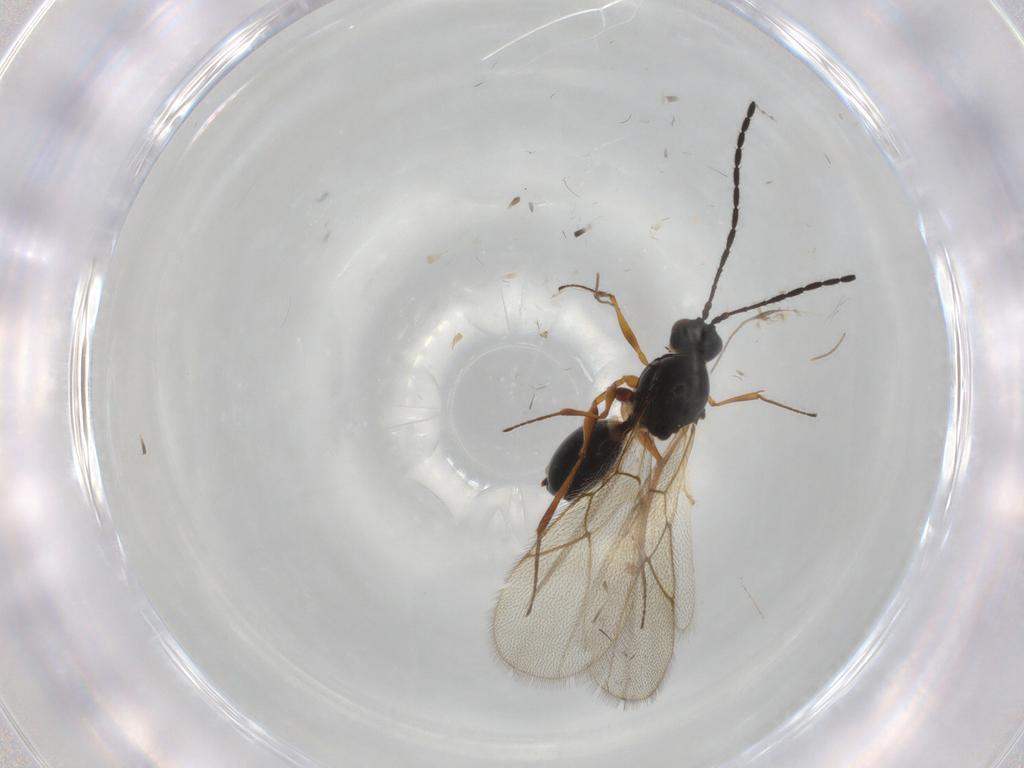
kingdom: Animalia
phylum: Arthropoda
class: Insecta
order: Hymenoptera
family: Figitidae
